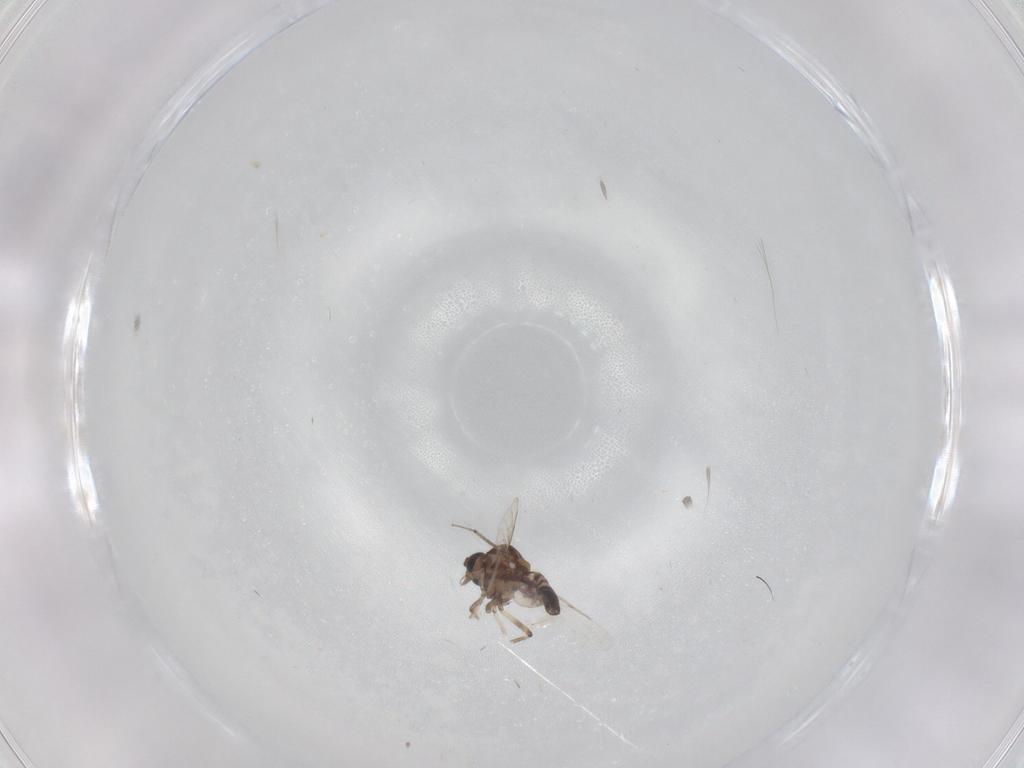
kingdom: Animalia
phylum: Arthropoda
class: Insecta
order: Diptera
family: Ceratopogonidae
